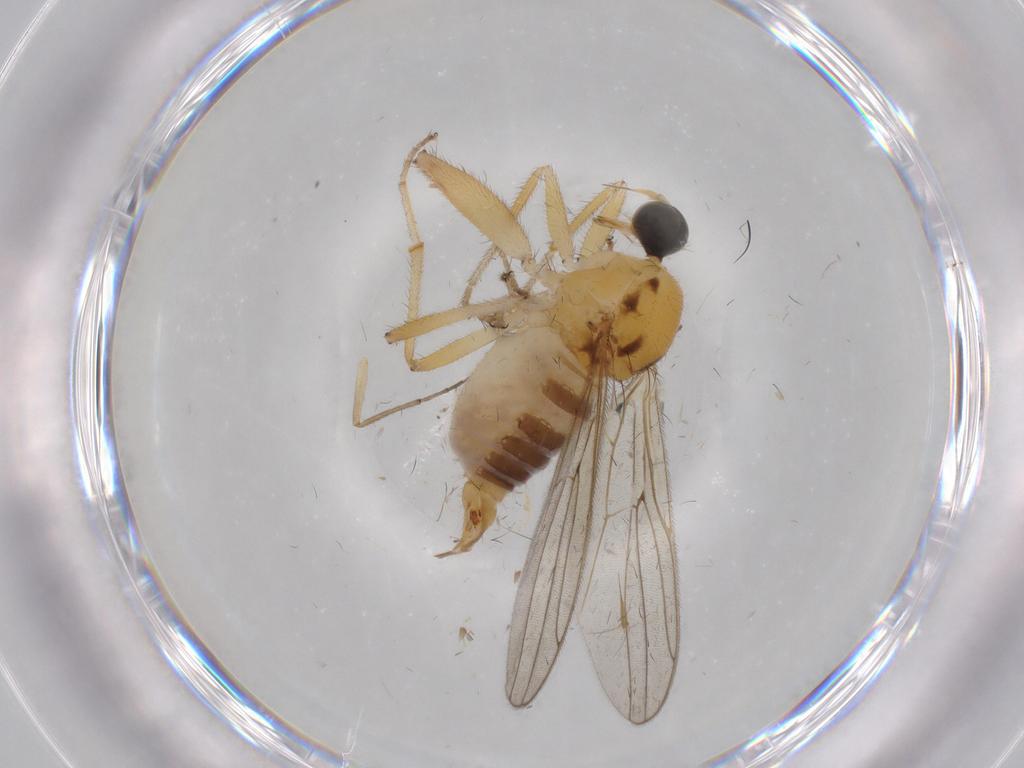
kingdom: Animalia
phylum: Arthropoda
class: Insecta
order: Diptera
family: Hybotidae
